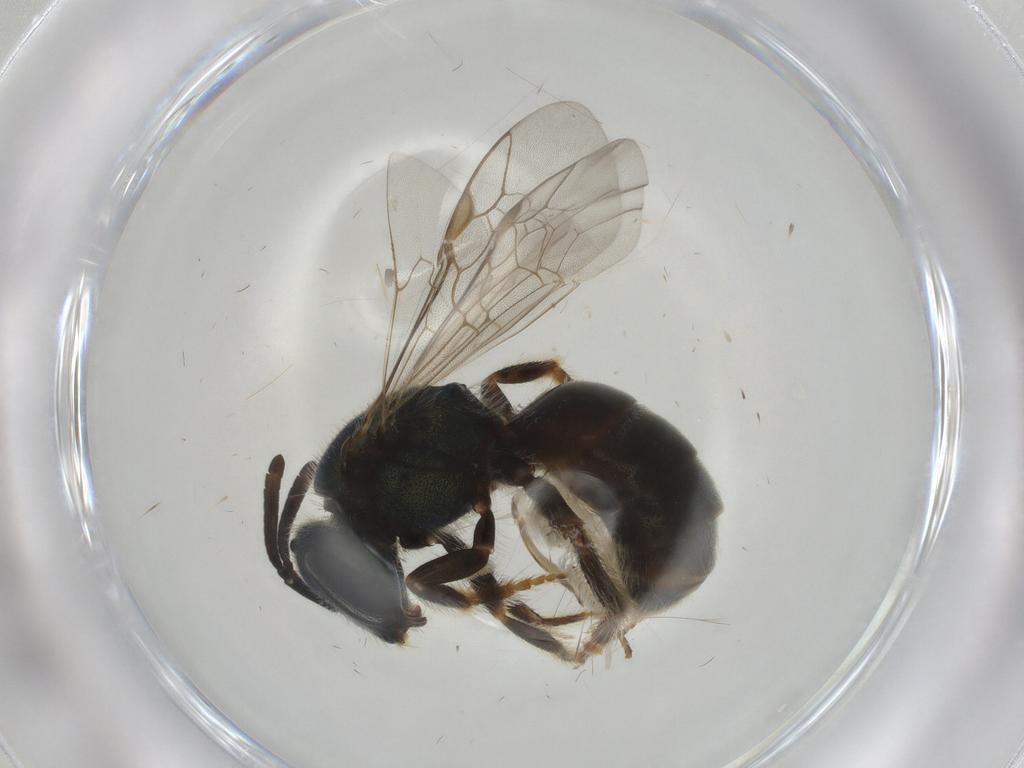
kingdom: Animalia
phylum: Arthropoda
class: Insecta
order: Hymenoptera
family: Halictidae
